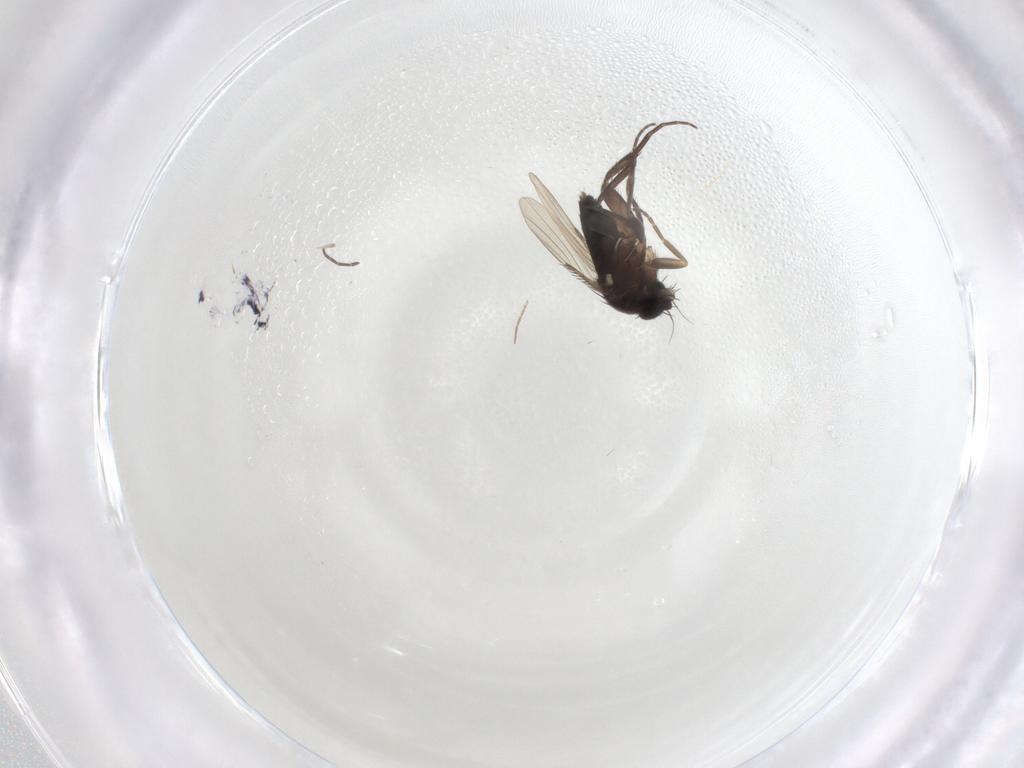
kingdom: Animalia
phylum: Arthropoda
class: Insecta
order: Diptera
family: Phoridae
